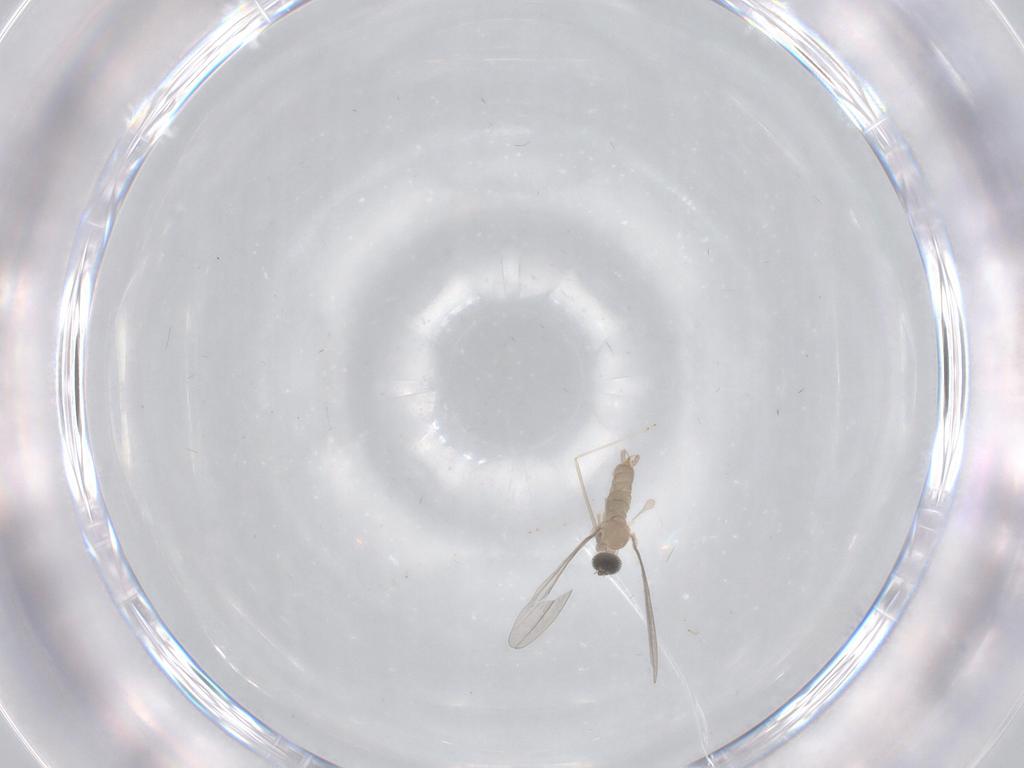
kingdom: Animalia
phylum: Arthropoda
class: Insecta
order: Diptera
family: Cecidomyiidae
